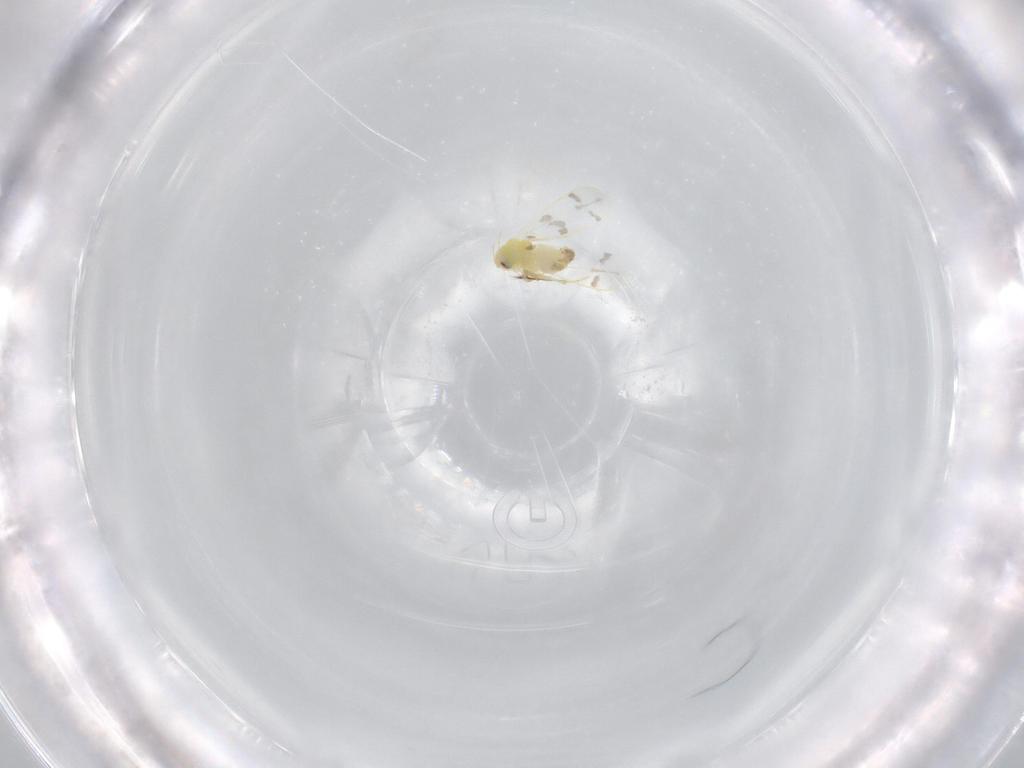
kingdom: Animalia
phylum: Arthropoda
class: Insecta
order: Hemiptera
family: Aleyrodidae
